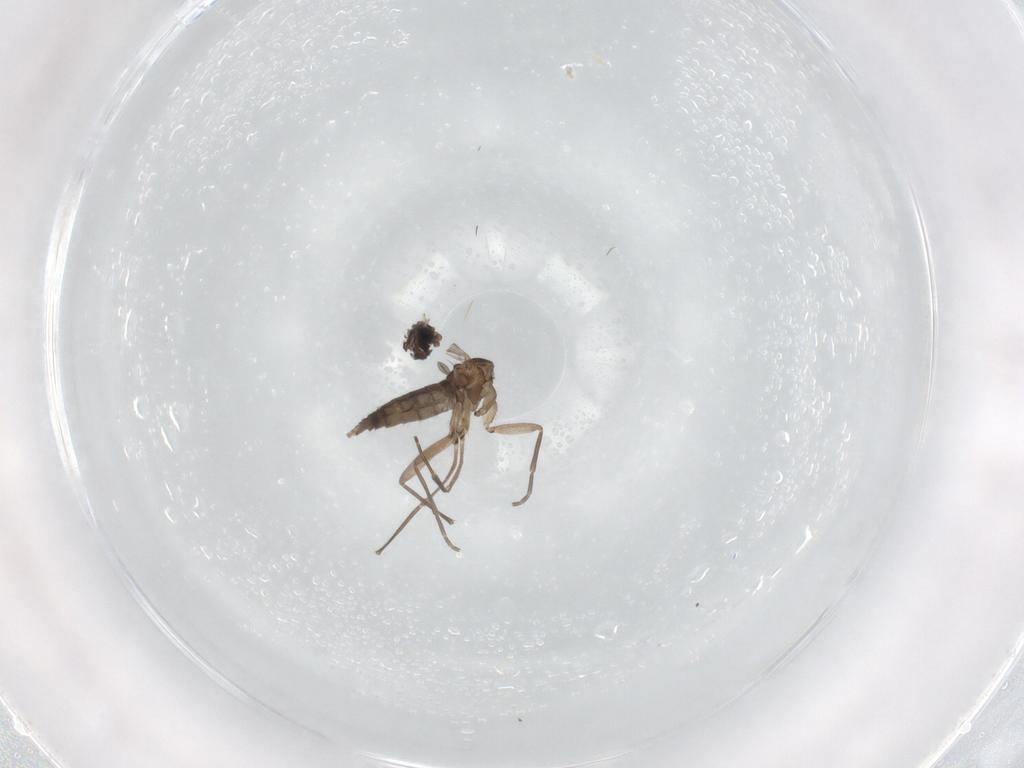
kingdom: Animalia
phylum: Arthropoda
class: Insecta
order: Diptera
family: Sciaridae
